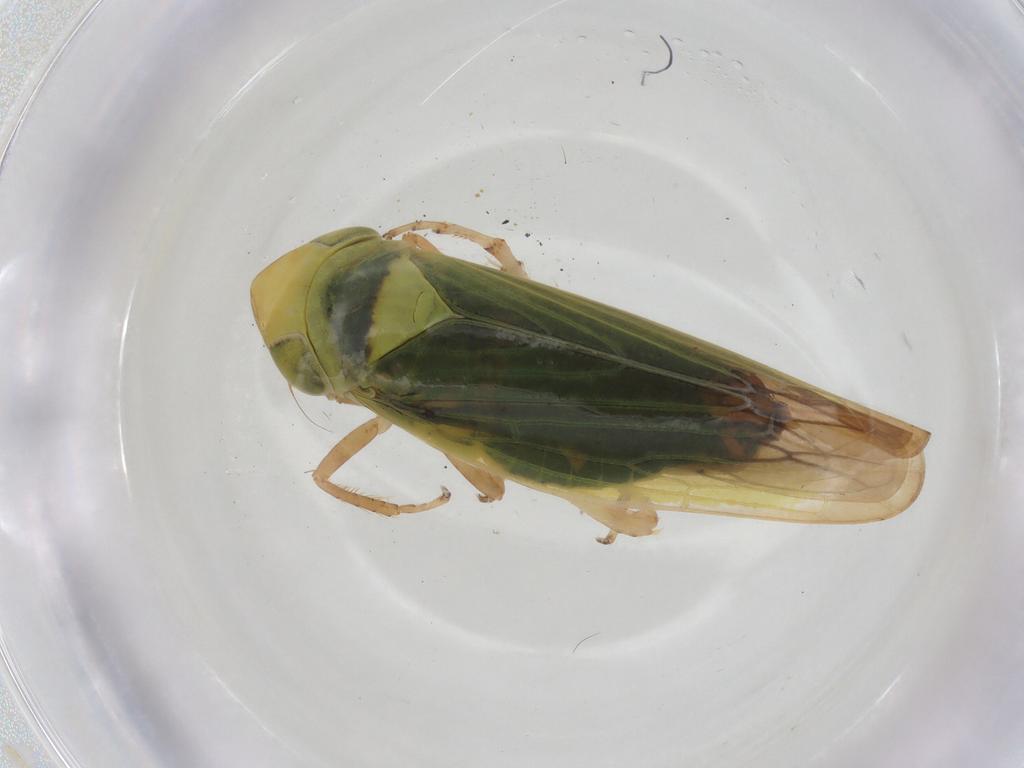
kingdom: Animalia
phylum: Arthropoda
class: Insecta
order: Hemiptera
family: Cicadellidae
